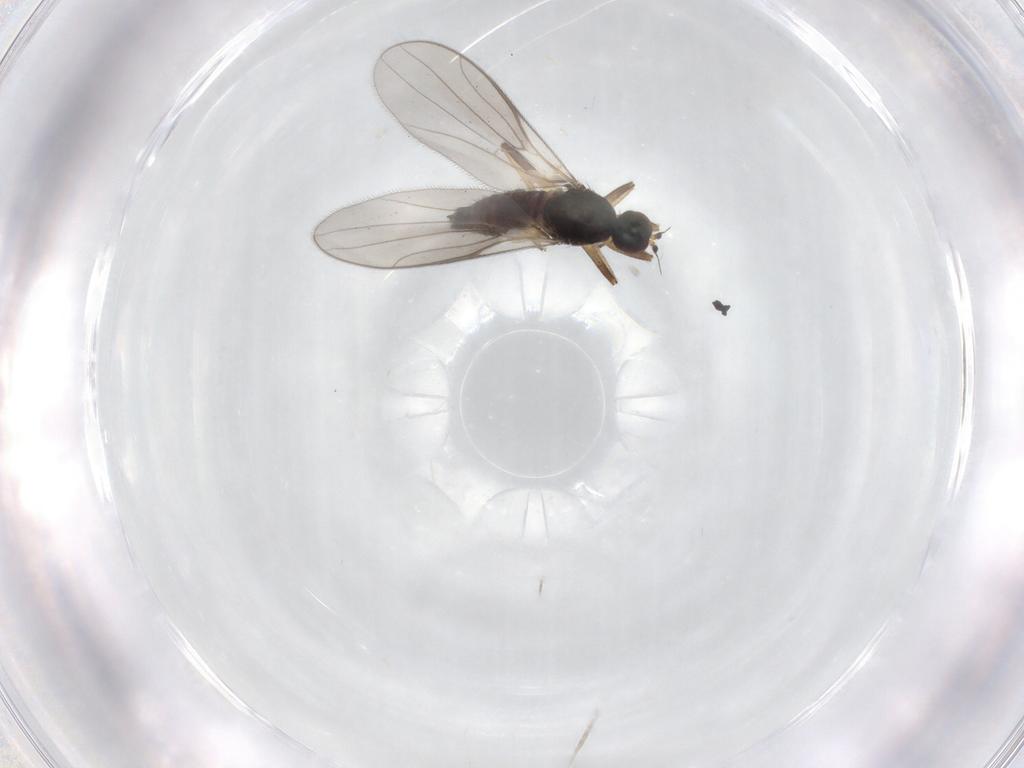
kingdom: Animalia
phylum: Arthropoda
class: Insecta
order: Diptera
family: Hybotidae
